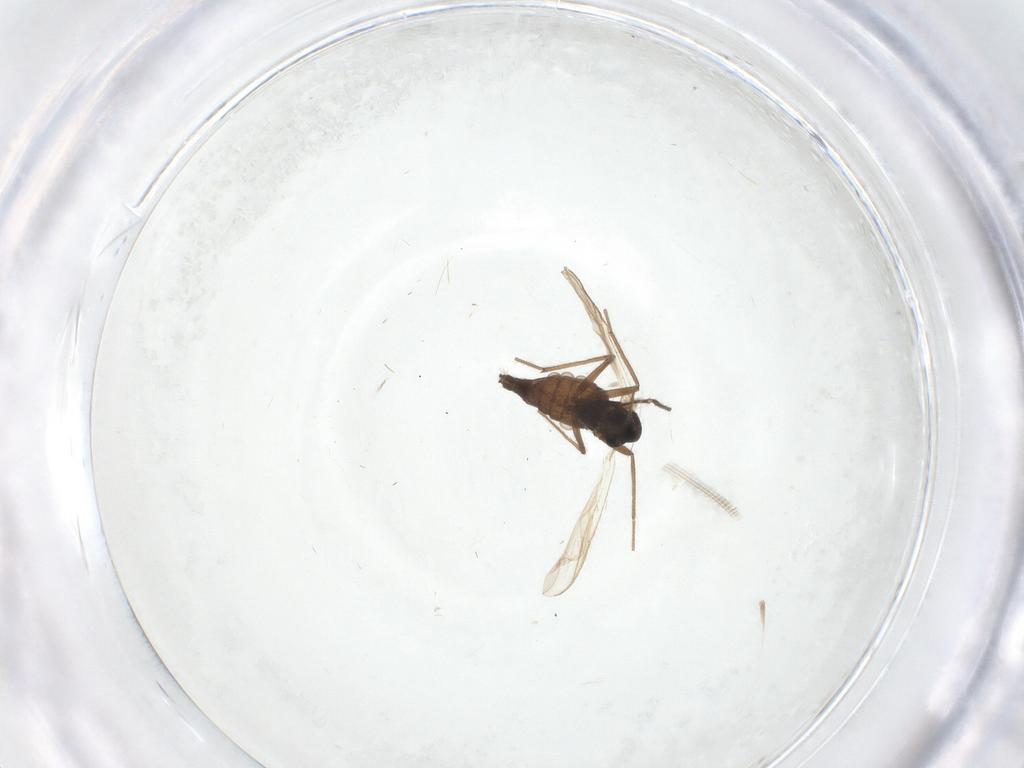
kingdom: Animalia
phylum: Arthropoda
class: Insecta
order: Diptera
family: Chironomidae
